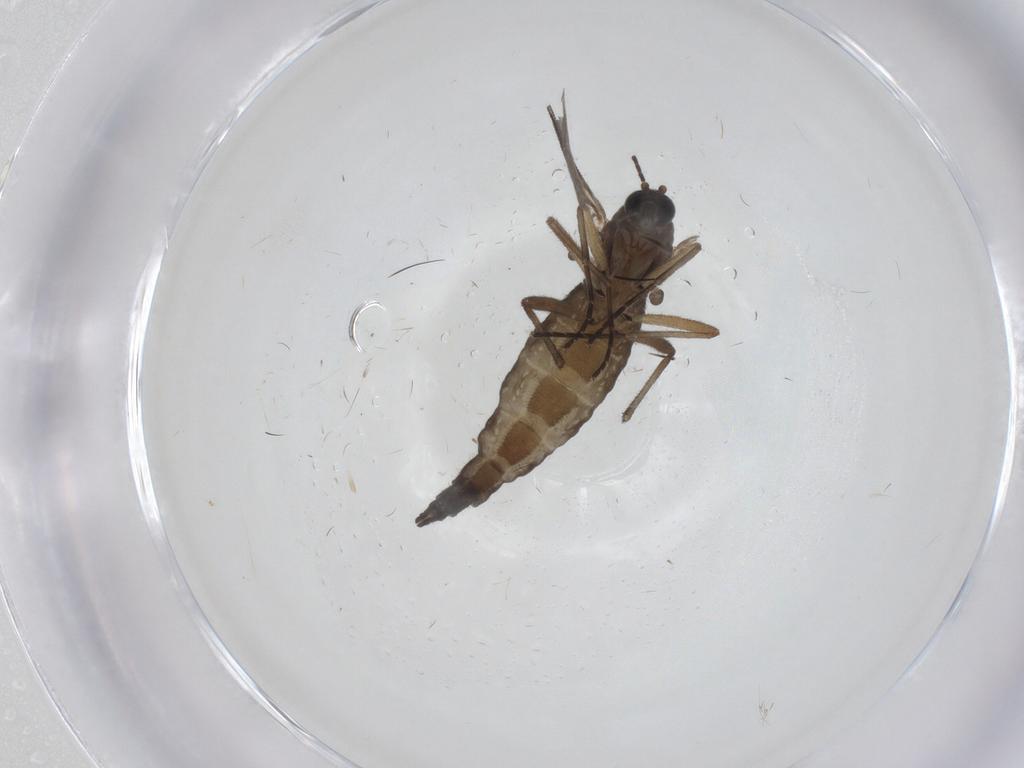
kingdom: Animalia
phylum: Arthropoda
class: Insecta
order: Diptera
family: Sciaridae
